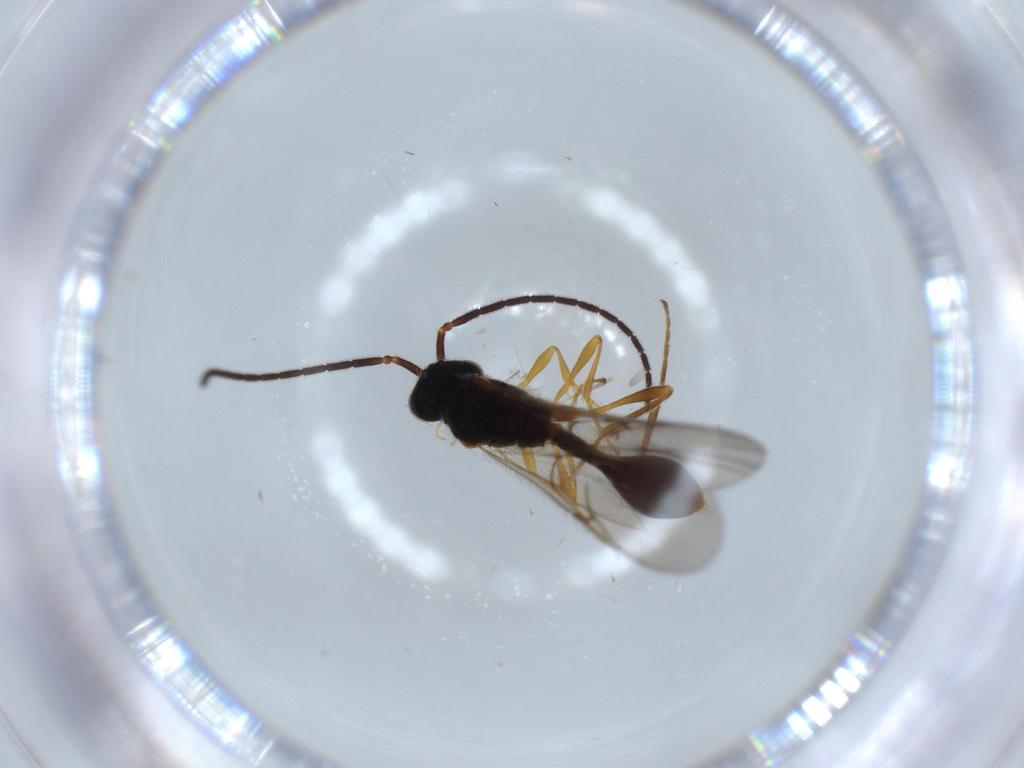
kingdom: Animalia
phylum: Arthropoda
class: Insecta
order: Hymenoptera
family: Diapriidae
